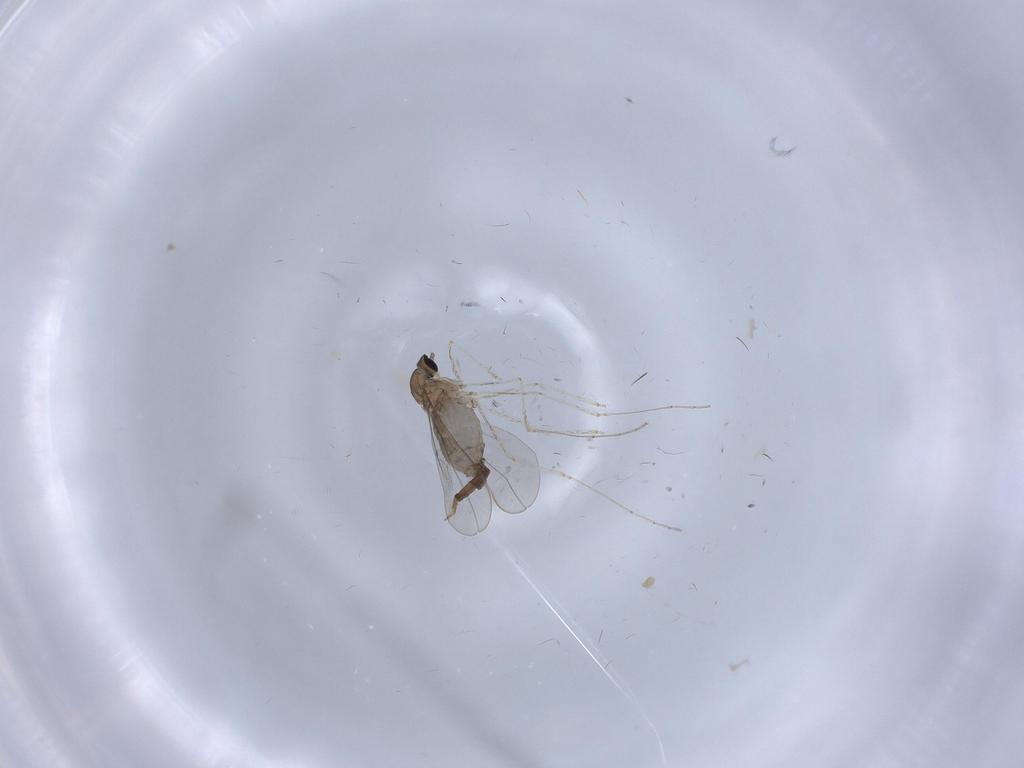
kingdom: Animalia
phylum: Arthropoda
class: Insecta
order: Diptera
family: Cecidomyiidae
